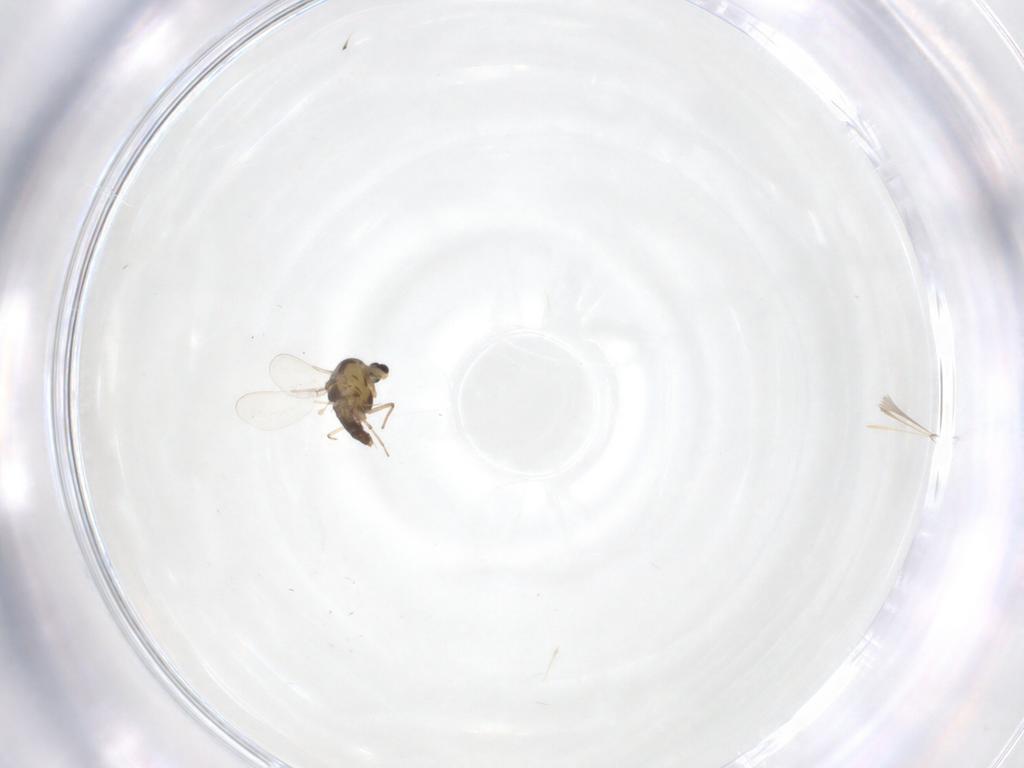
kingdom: Animalia
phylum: Arthropoda
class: Insecta
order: Diptera
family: Chironomidae
